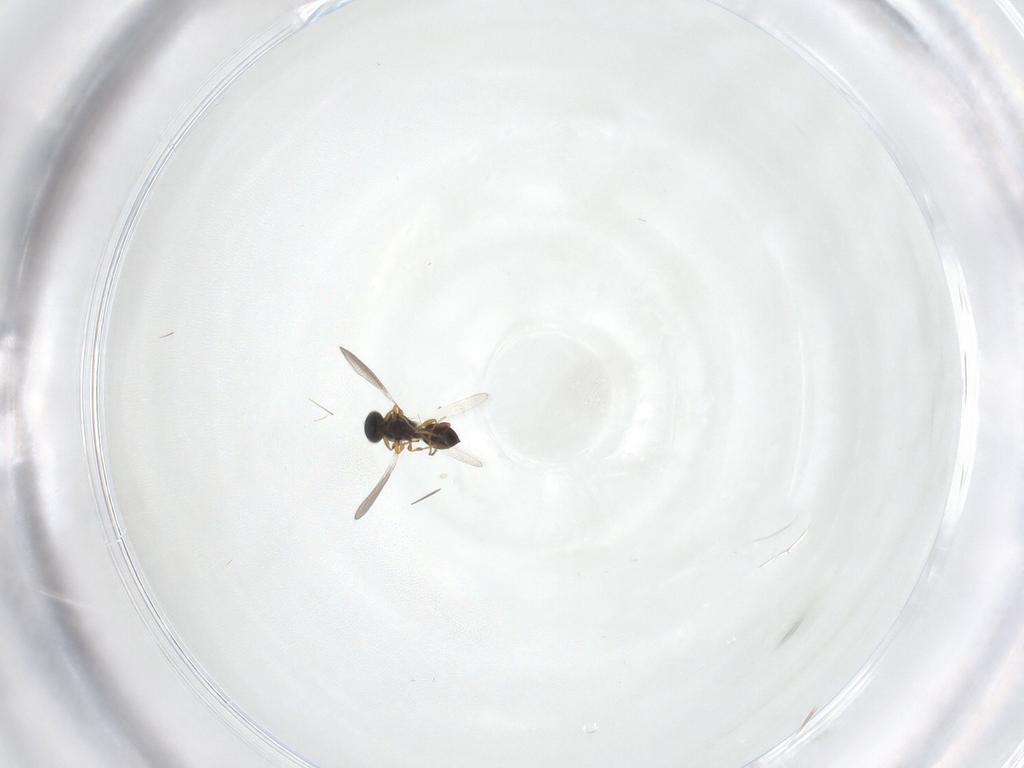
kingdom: Animalia
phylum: Arthropoda
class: Insecta
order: Hymenoptera
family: Platygastridae
